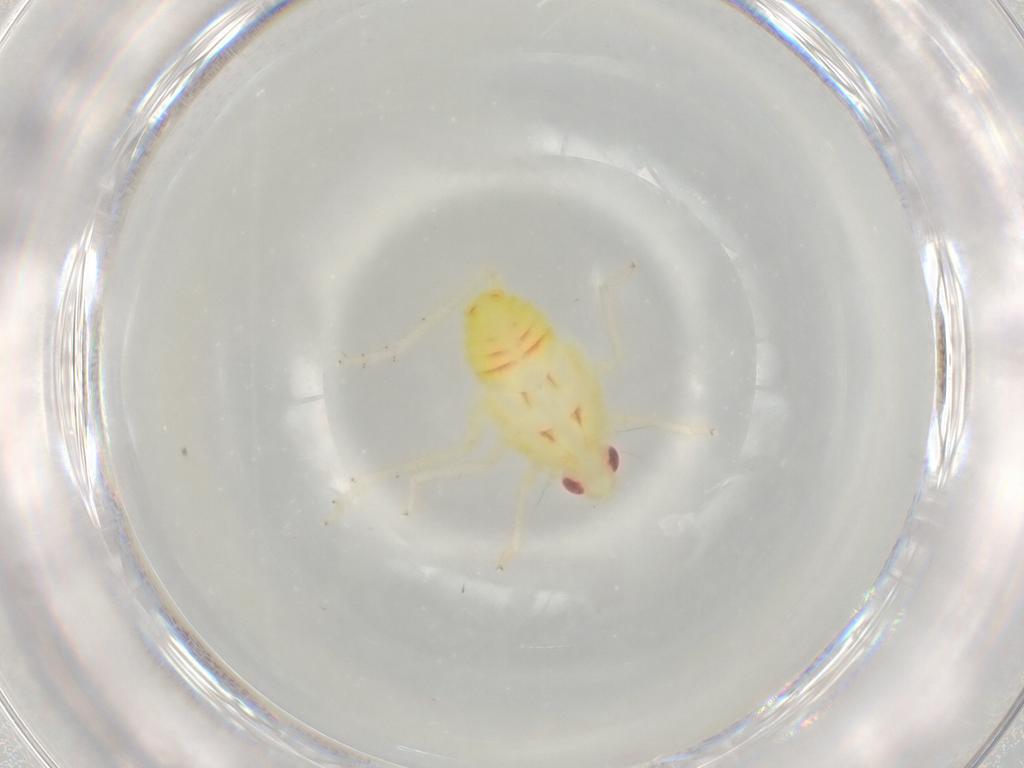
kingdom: Animalia
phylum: Arthropoda
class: Insecta
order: Hemiptera
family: Tropiduchidae
